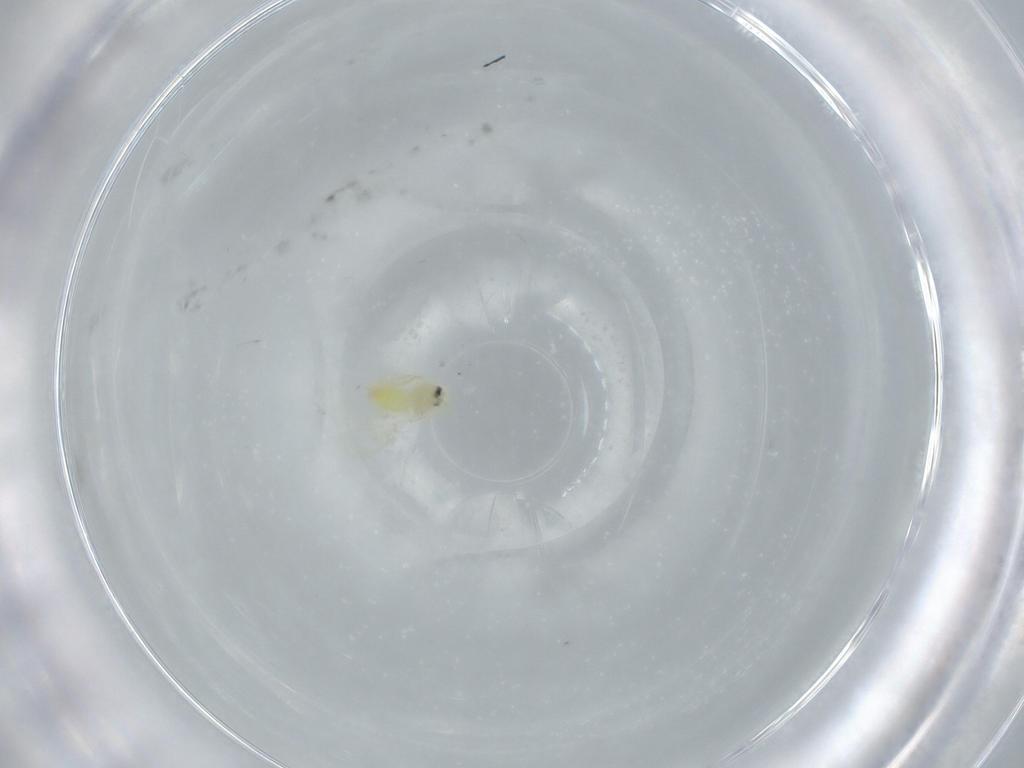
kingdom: Animalia
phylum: Arthropoda
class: Insecta
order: Hemiptera
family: Aleyrodidae
